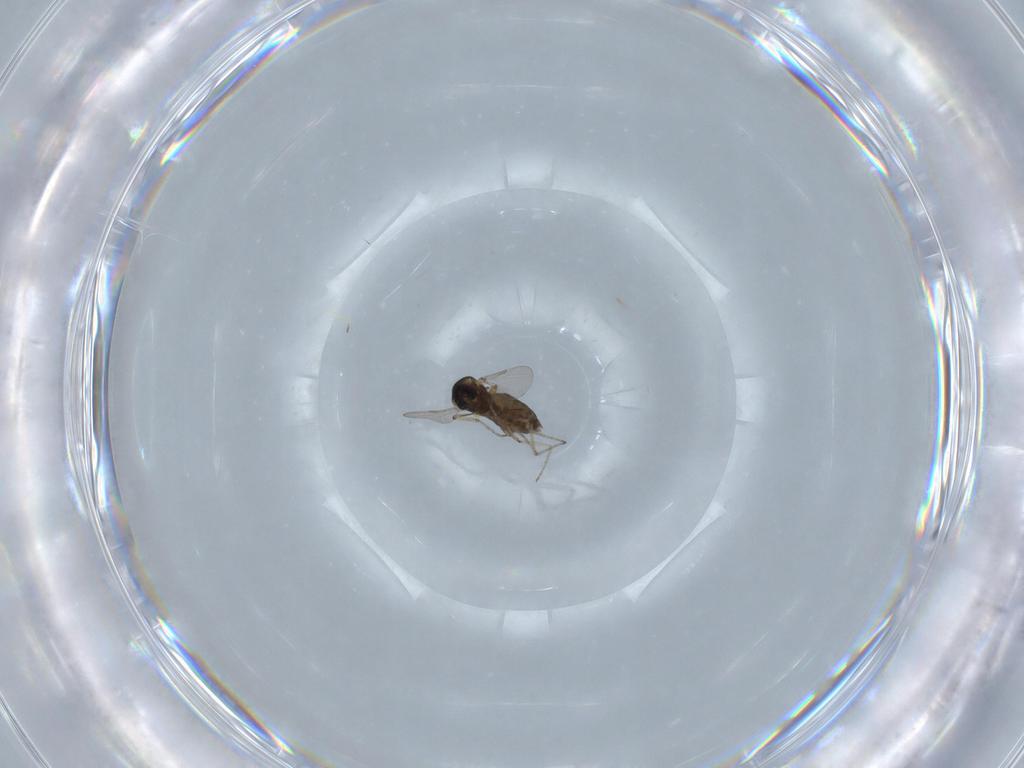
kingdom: Animalia
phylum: Arthropoda
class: Insecta
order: Diptera
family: Ceratopogonidae
